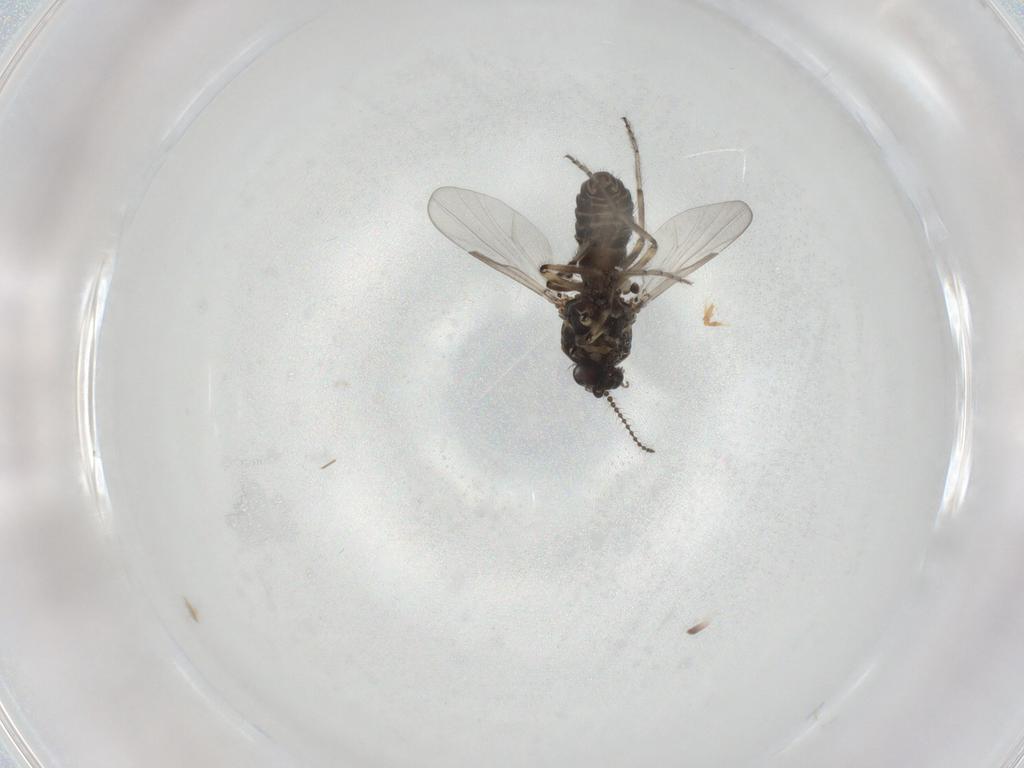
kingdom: Animalia
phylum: Arthropoda
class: Insecta
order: Diptera
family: Ceratopogonidae
